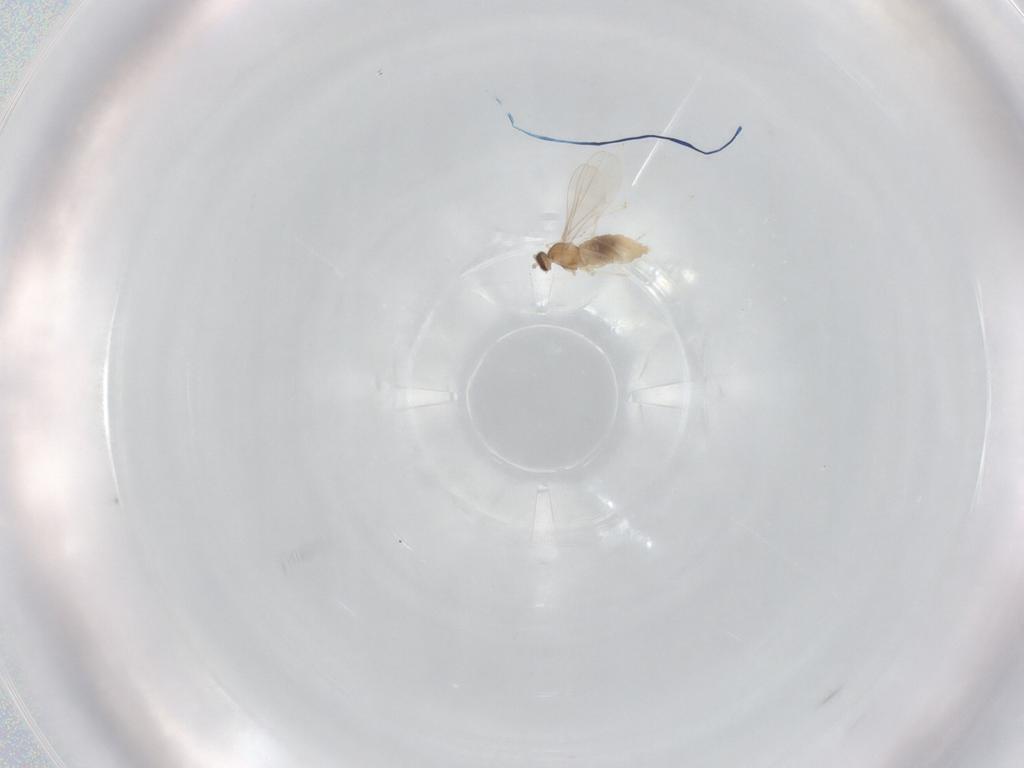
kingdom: Animalia
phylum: Arthropoda
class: Insecta
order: Diptera
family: Cecidomyiidae
